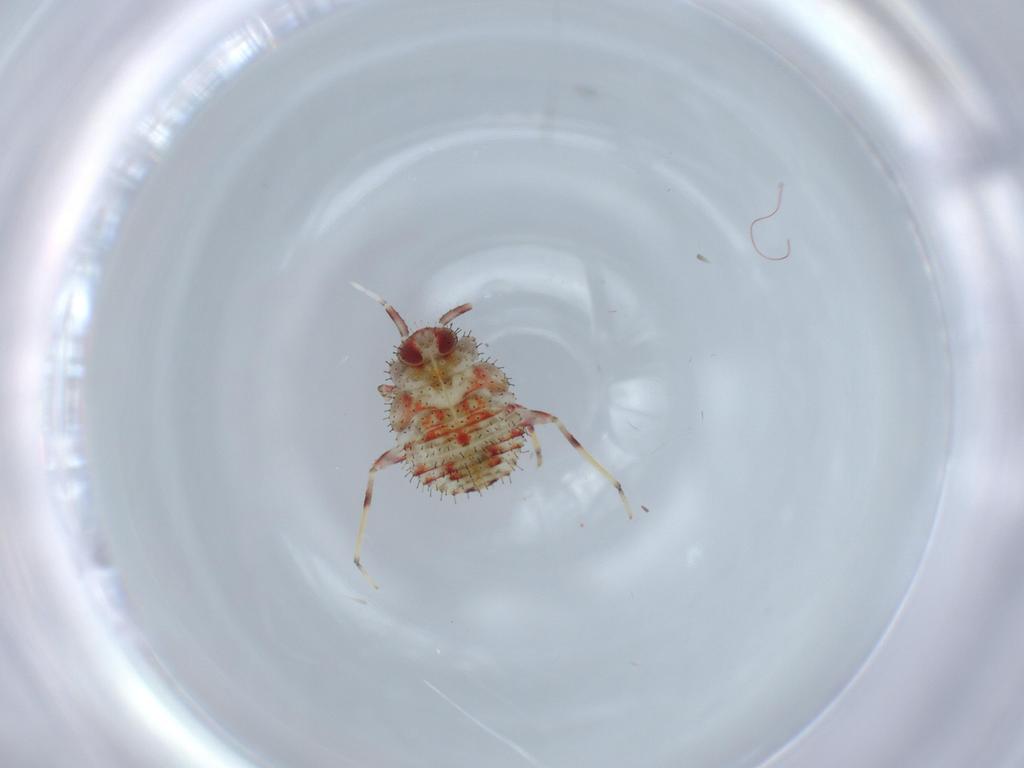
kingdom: Animalia
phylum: Arthropoda
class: Insecta
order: Hemiptera
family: Miridae
